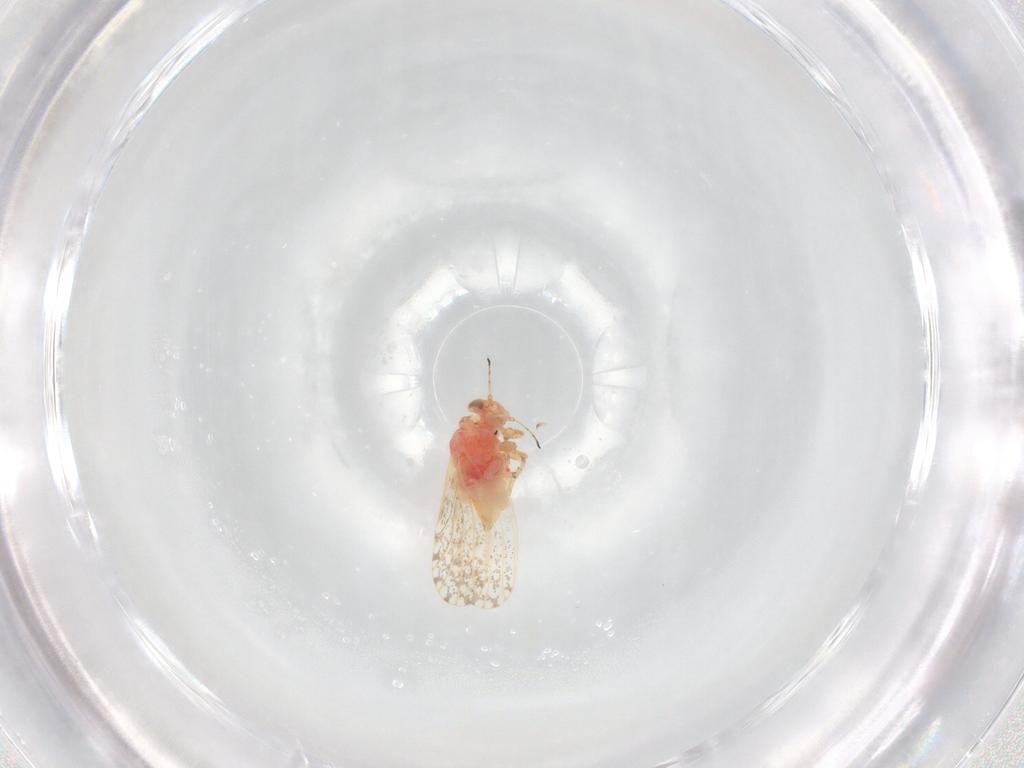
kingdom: Animalia
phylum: Arthropoda
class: Insecta
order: Hemiptera
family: Psyllidae
